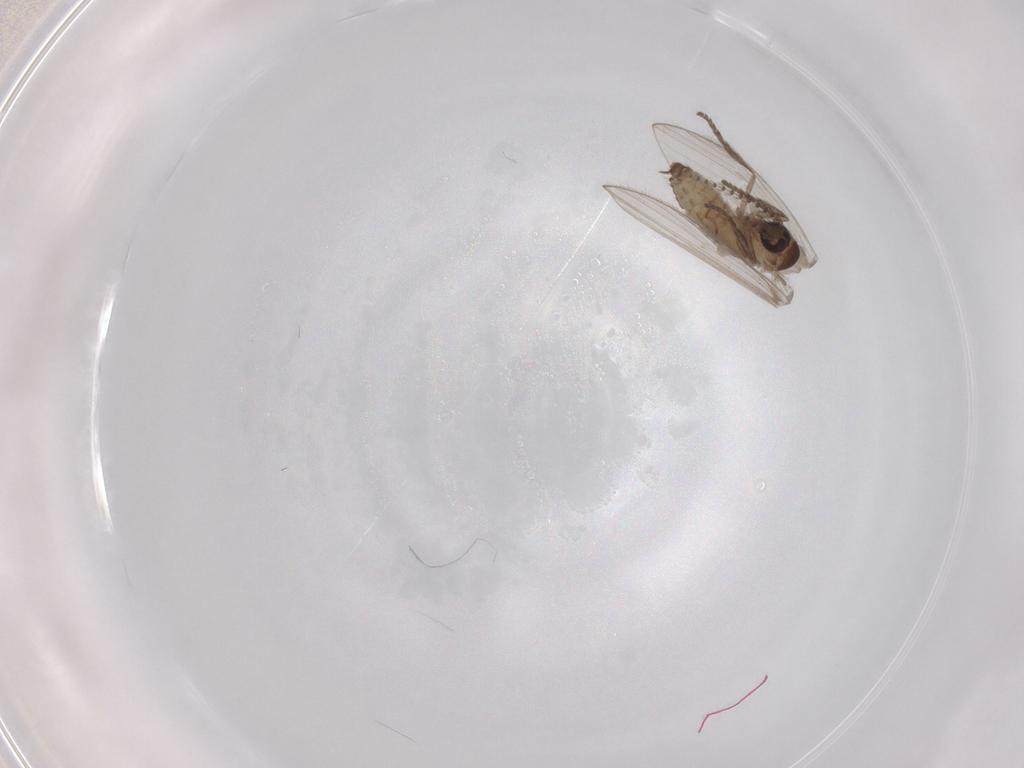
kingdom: Animalia
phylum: Arthropoda
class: Insecta
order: Diptera
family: Psychodidae
